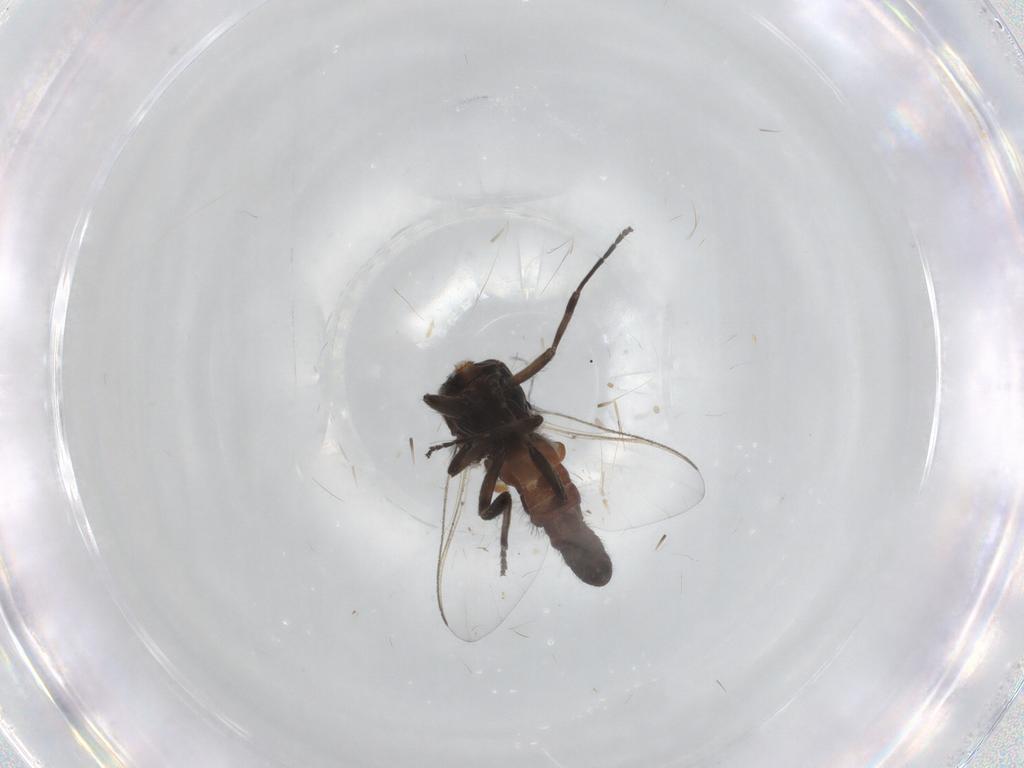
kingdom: Animalia
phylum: Arthropoda
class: Insecta
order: Diptera
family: Simuliidae
